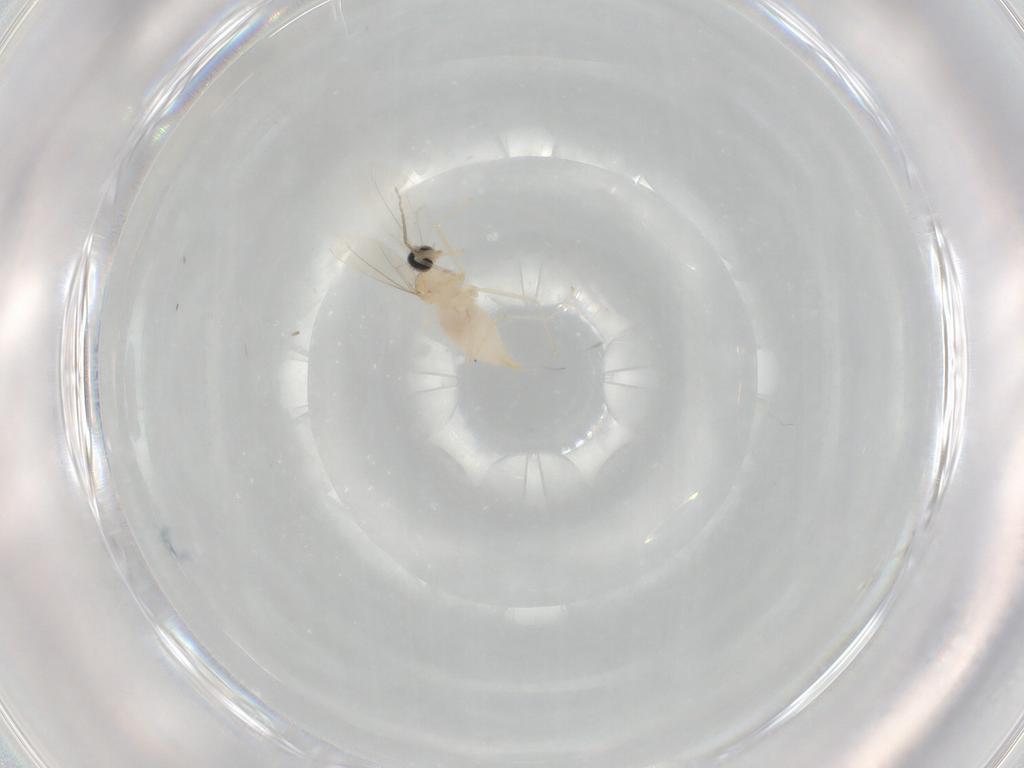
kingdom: Animalia
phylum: Arthropoda
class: Insecta
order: Diptera
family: Cecidomyiidae
